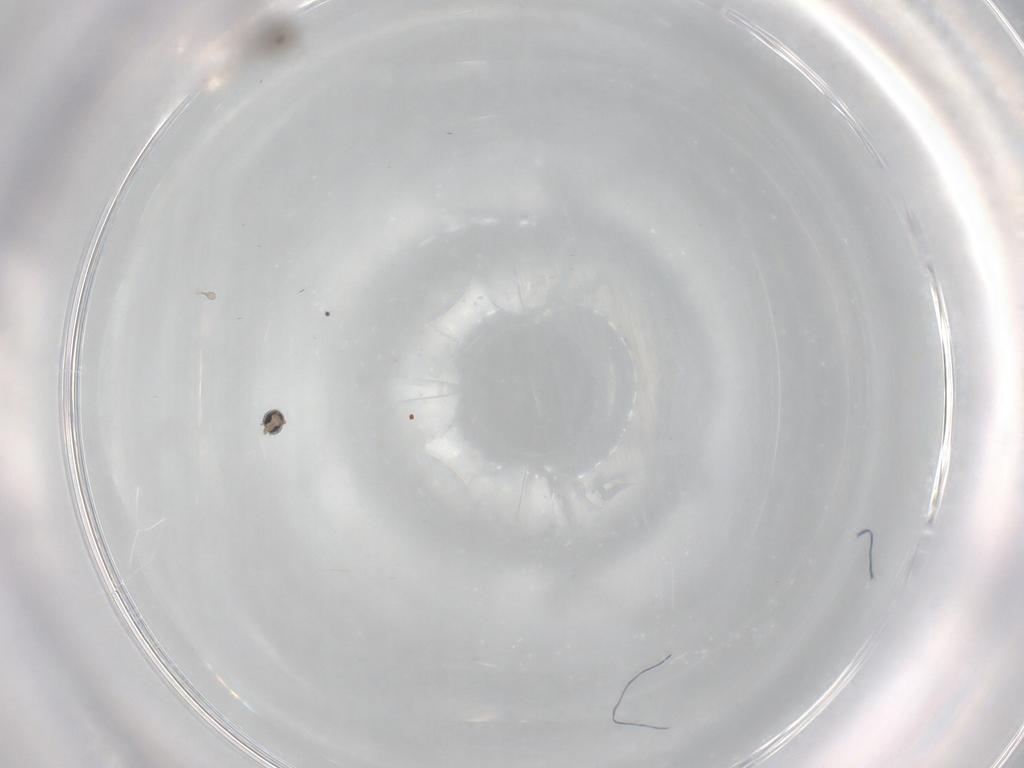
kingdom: Animalia
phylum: Arthropoda
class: Insecta
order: Diptera
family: Cecidomyiidae
